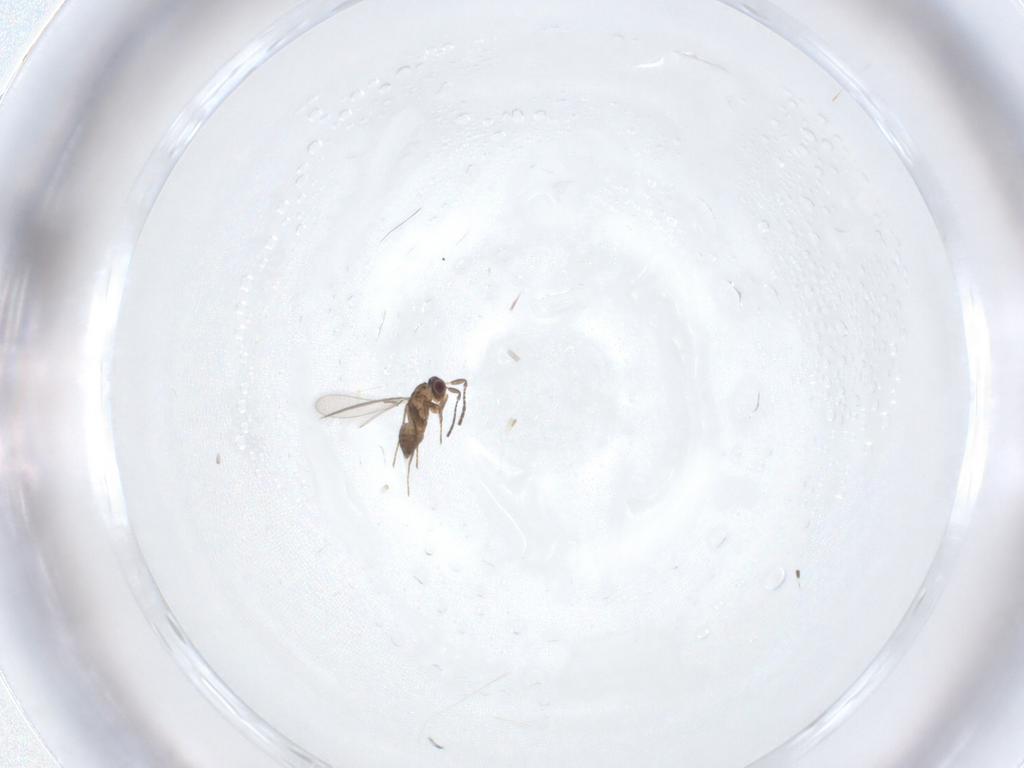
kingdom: Animalia
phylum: Arthropoda
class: Insecta
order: Hymenoptera
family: Mymaridae
